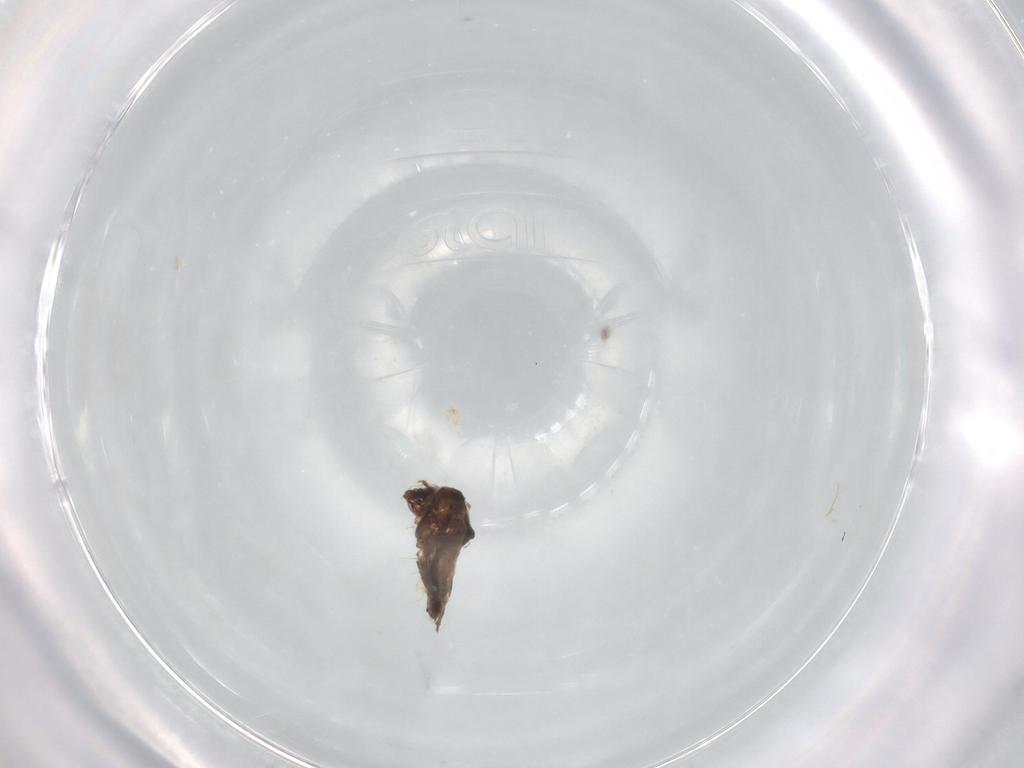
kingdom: Animalia
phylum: Arthropoda
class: Insecta
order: Coleoptera
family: Carabidae
